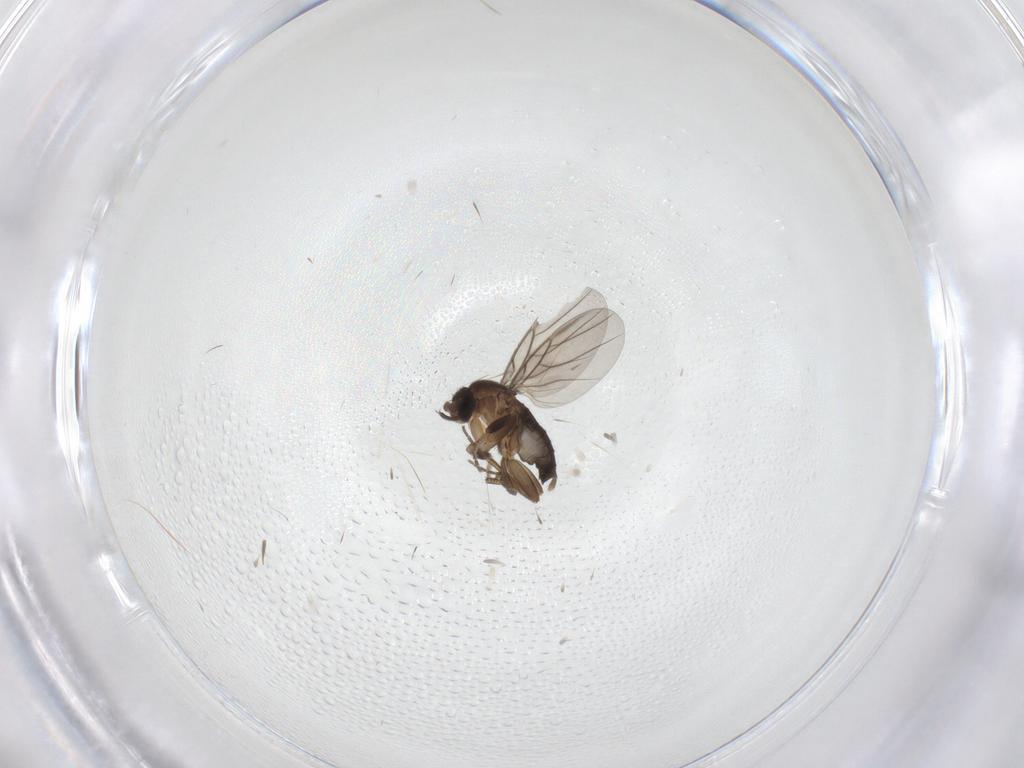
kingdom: Animalia
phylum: Arthropoda
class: Insecta
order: Diptera
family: Phoridae
